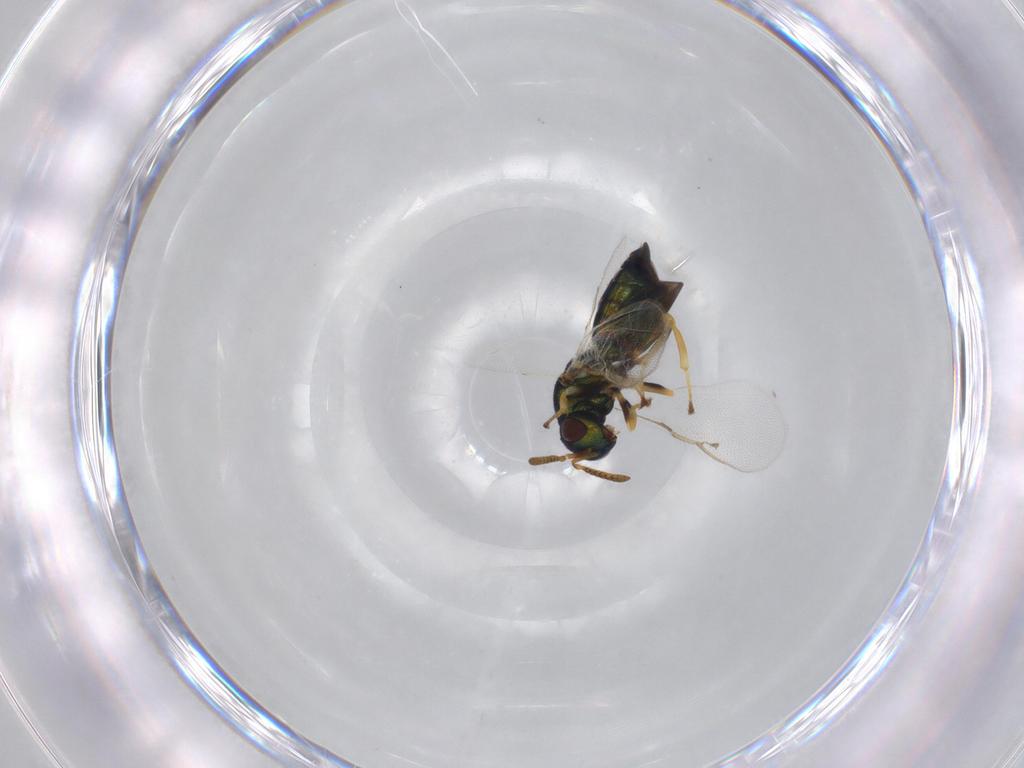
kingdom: Animalia
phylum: Arthropoda
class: Insecta
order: Hymenoptera
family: Pteromalidae
